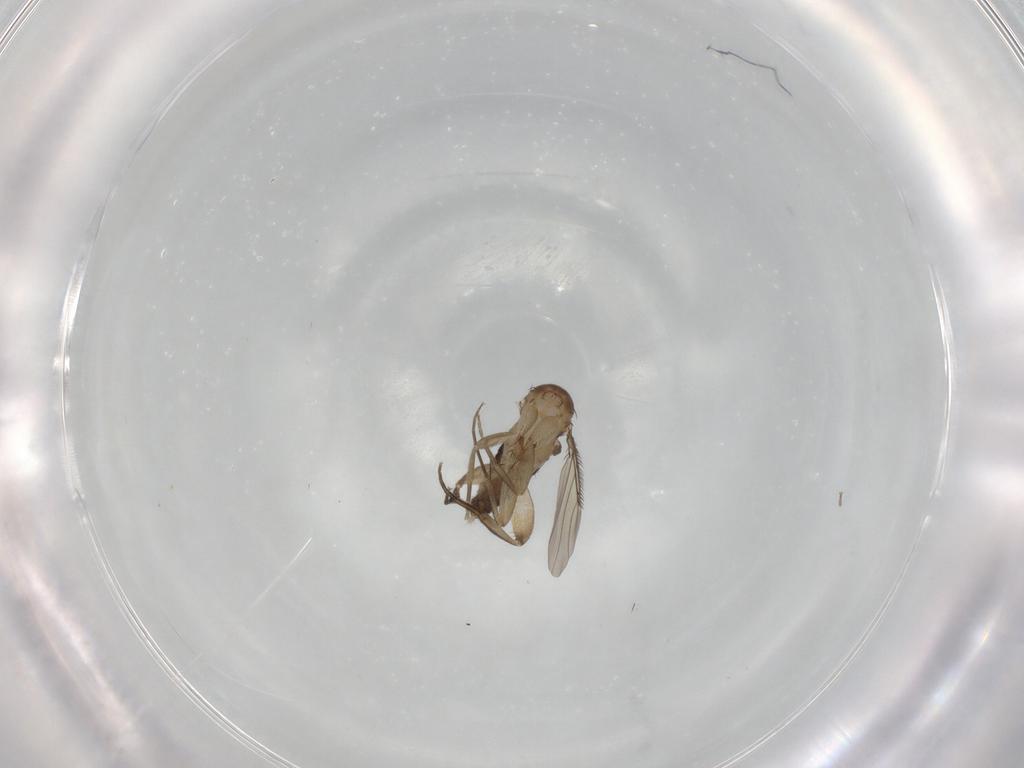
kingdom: Animalia
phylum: Arthropoda
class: Insecta
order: Diptera
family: Phoridae
